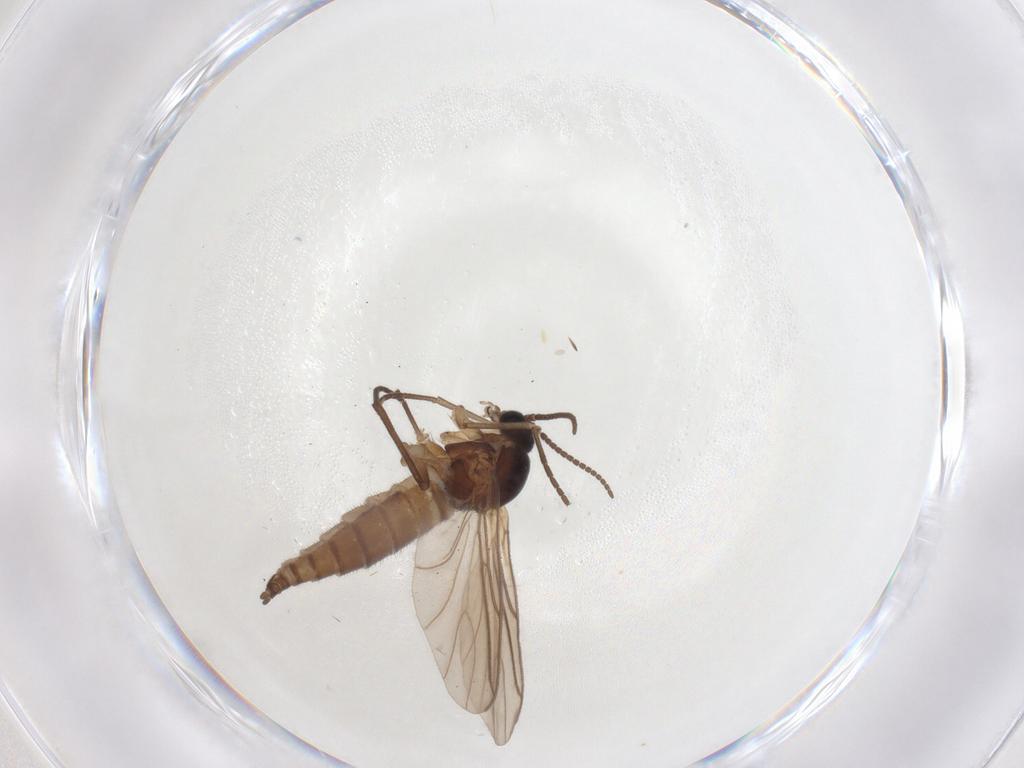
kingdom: Animalia
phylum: Arthropoda
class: Insecta
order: Diptera
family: Sciaridae
